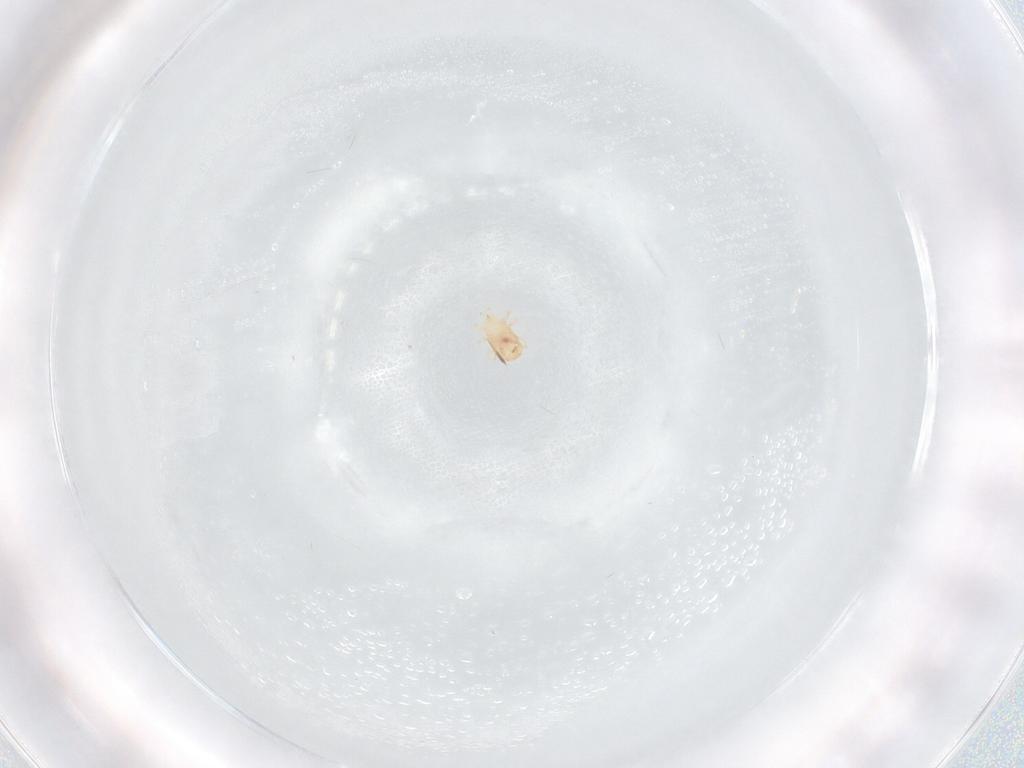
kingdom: Animalia
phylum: Arthropoda
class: Arachnida
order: Mesostigmata
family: Phytoseiidae
